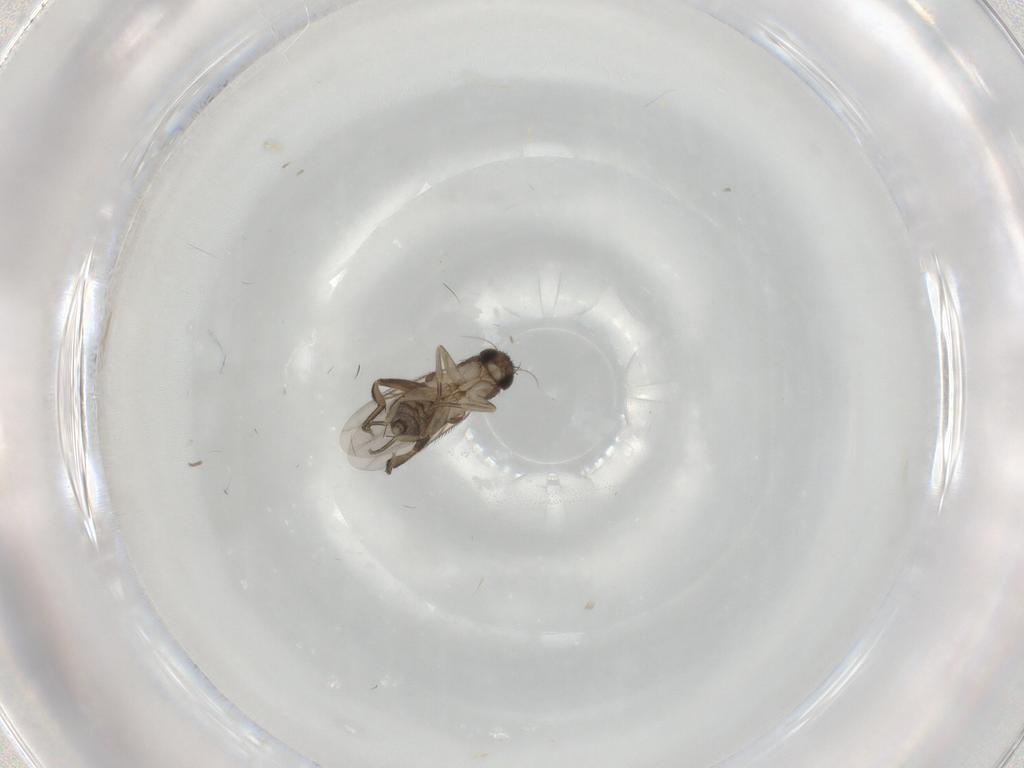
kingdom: Animalia
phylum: Arthropoda
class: Insecta
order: Diptera
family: Phoridae
